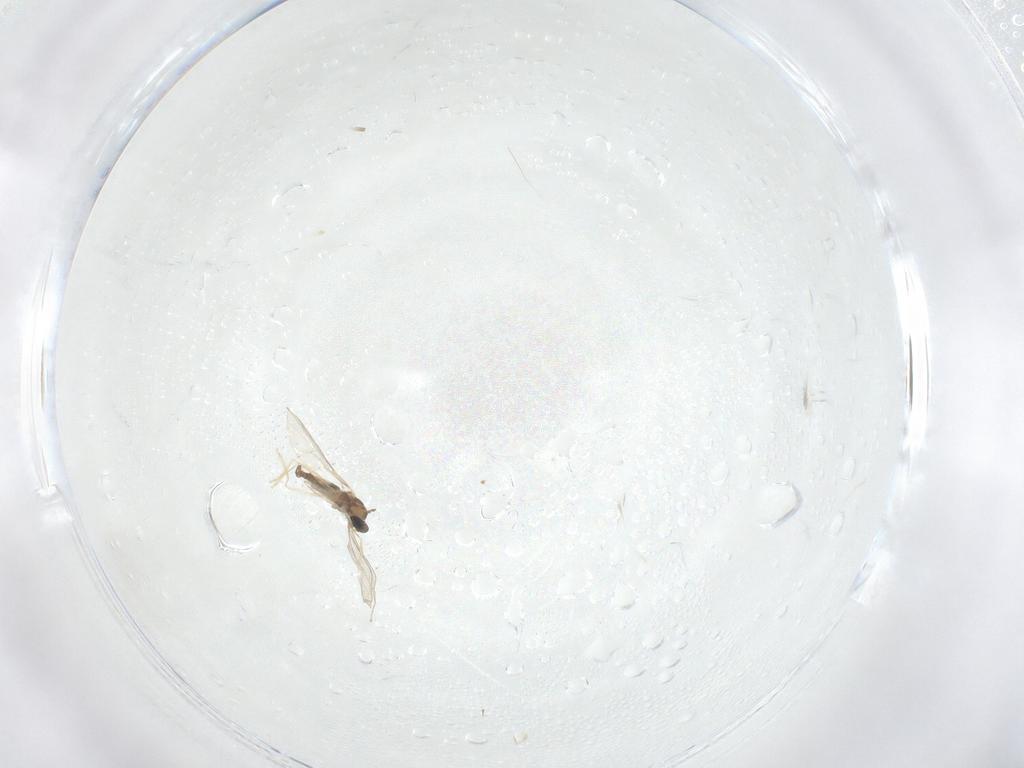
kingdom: Animalia
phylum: Arthropoda
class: Insecta
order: Diptera
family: Cecidomyiidae
